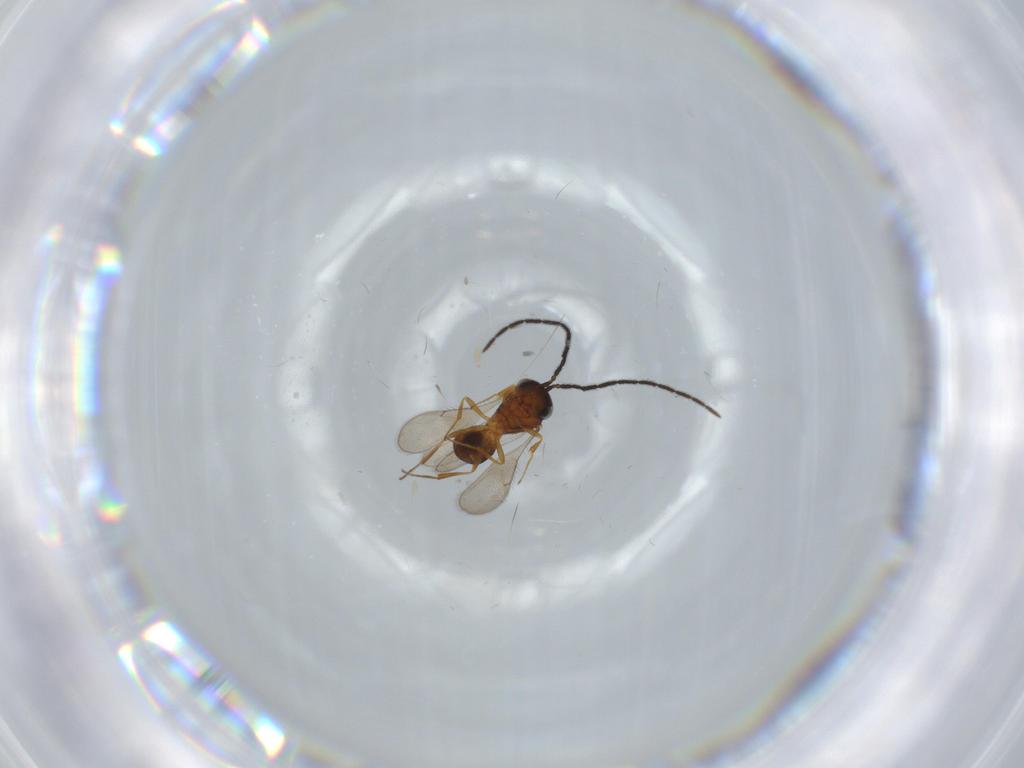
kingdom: Animalia
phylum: Arthropoda
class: Insecta
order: Hymenoptera
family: Scelionidae
